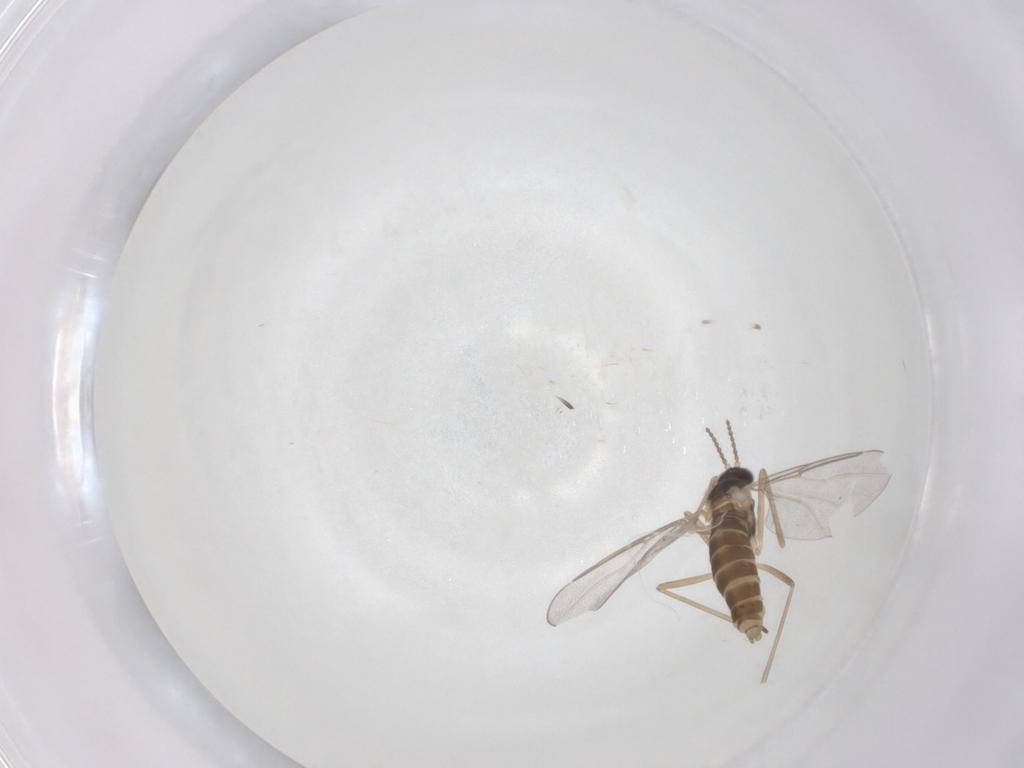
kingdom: Animalia
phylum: Arthropoda
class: Insecta
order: Diptera
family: Cecidomyiidae
